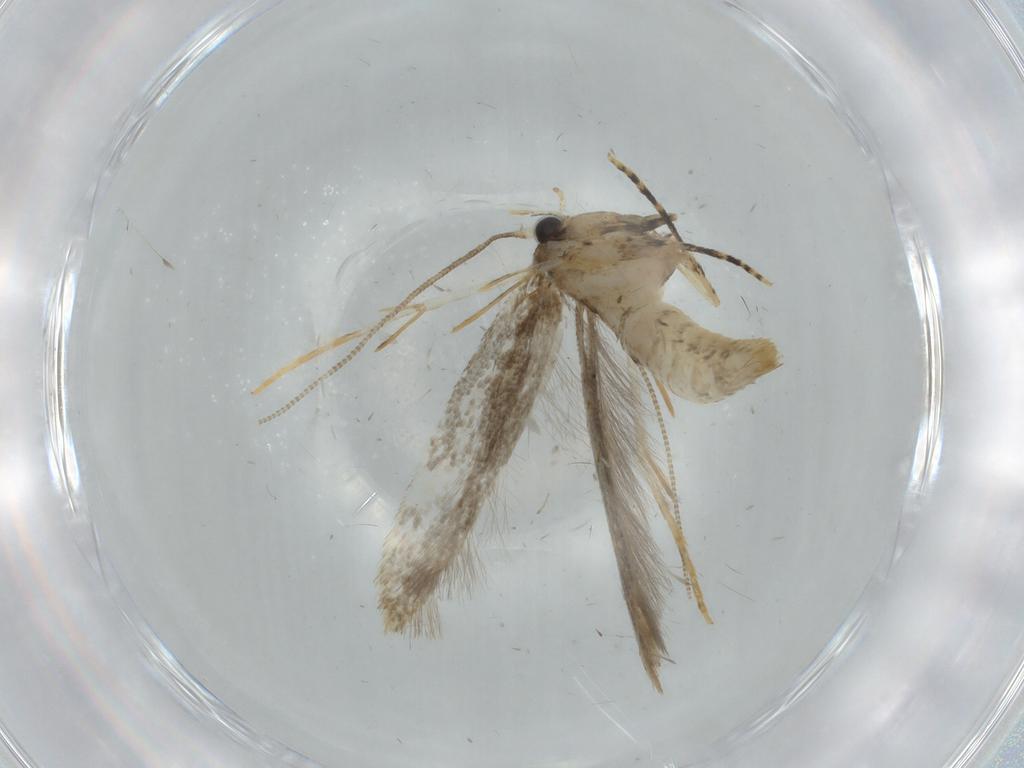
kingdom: Animalia
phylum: Arthropoda
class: Insecta
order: Lepidoptera
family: Tineidae
